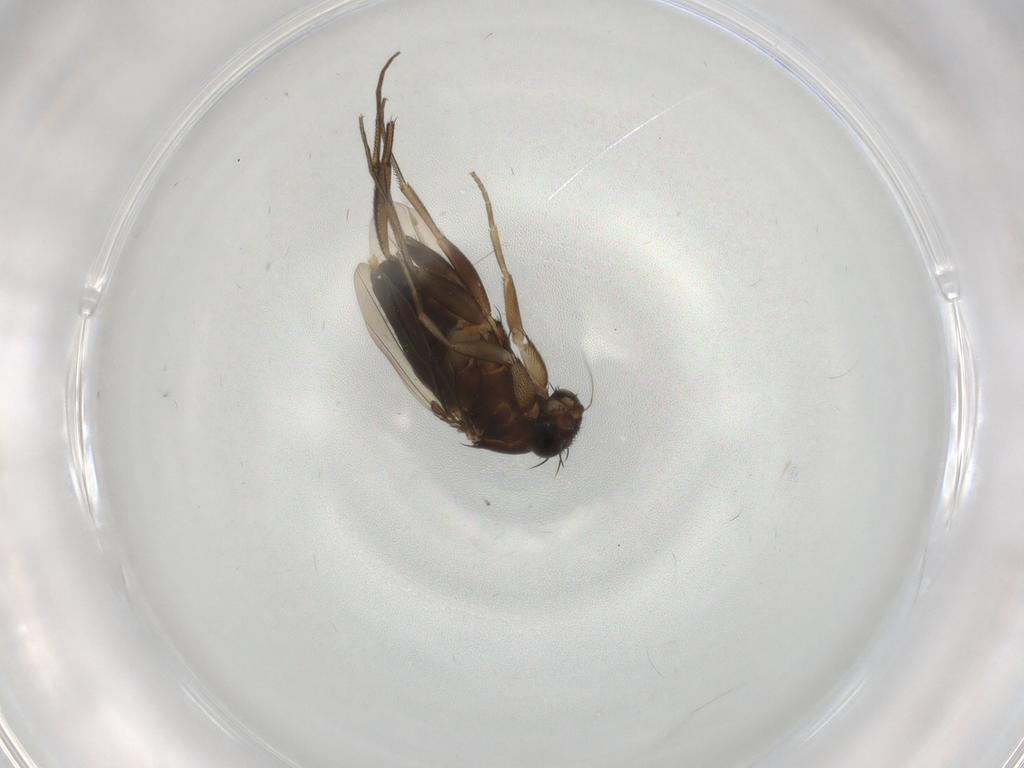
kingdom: Animalia
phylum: Arthropoda
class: Insecta
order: Diptera
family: Phoridae
